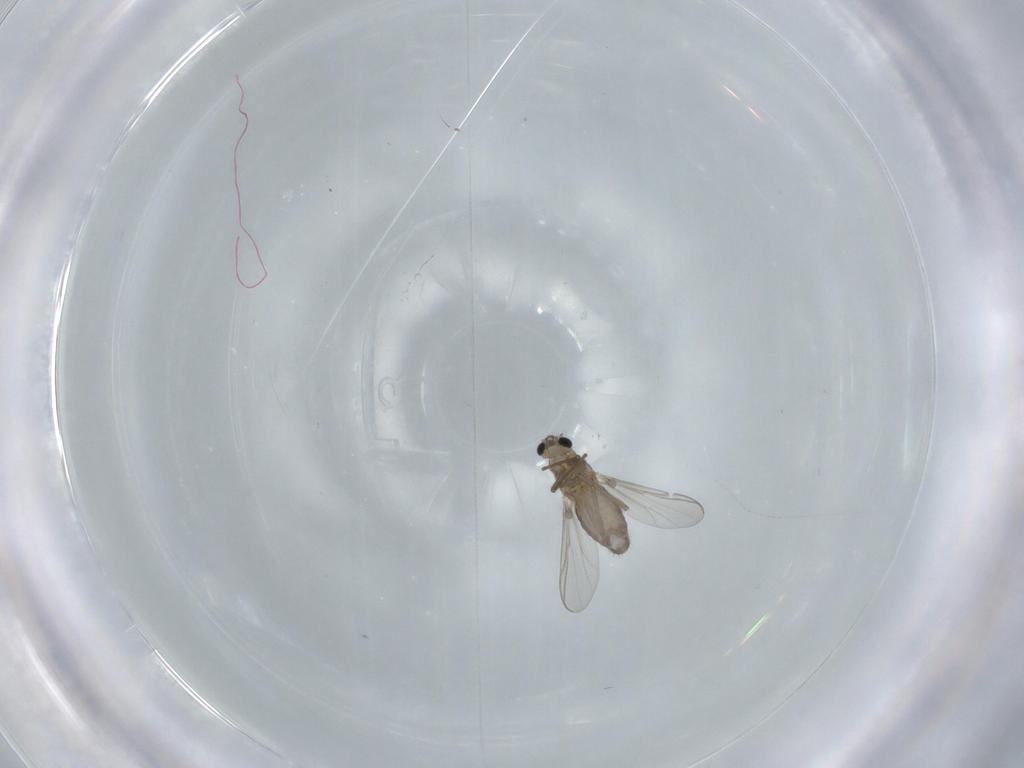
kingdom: Animalia
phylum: Arthropoda
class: Insecta
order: Diptera
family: Chironomidae
